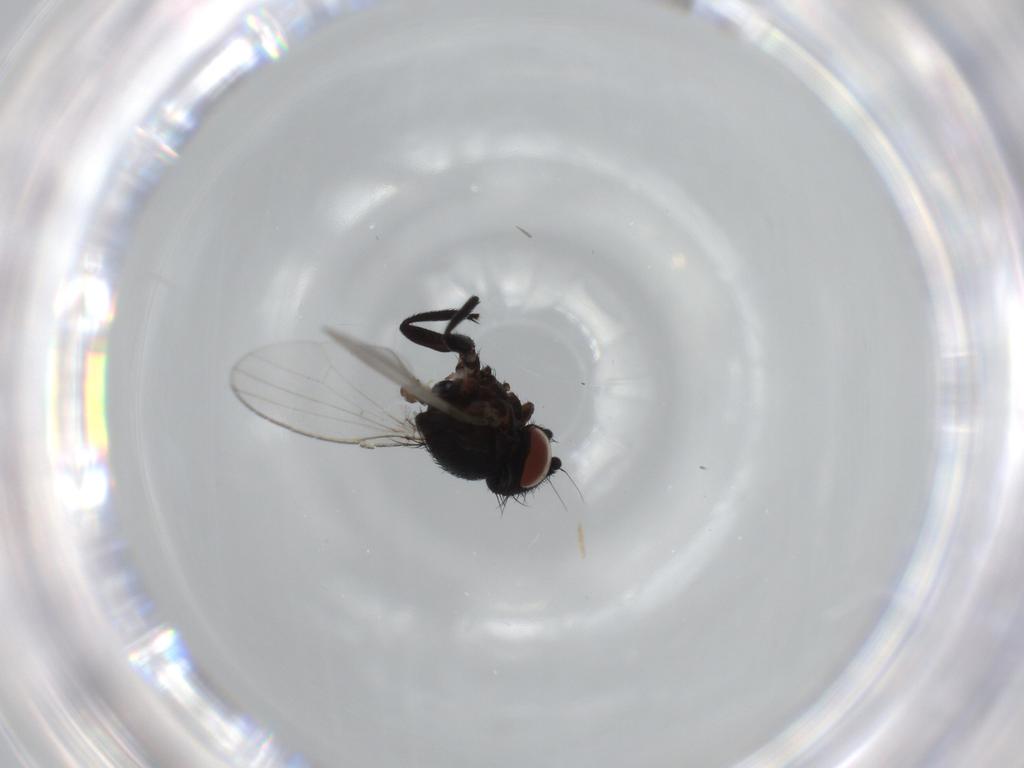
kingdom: Animalia
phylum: Arthropoda
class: Insecta
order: Diptera
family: Milichiidae
